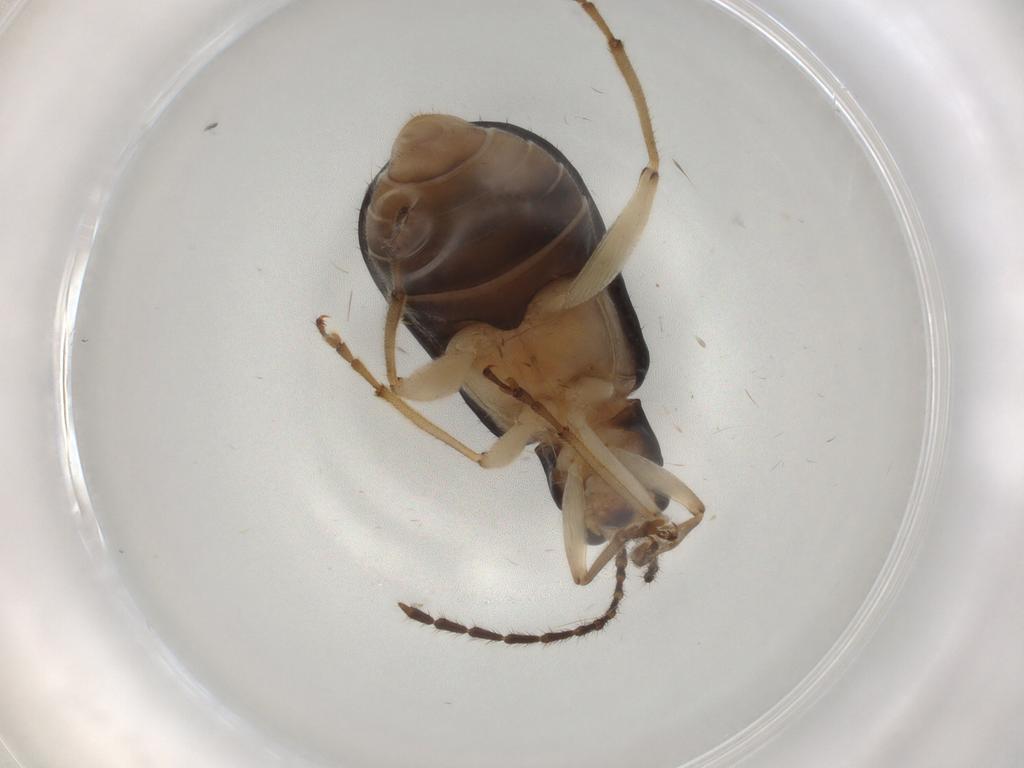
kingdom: Animalia
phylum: Arthropoda
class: Insecta
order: Coleoptera
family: Chrysomelidae
